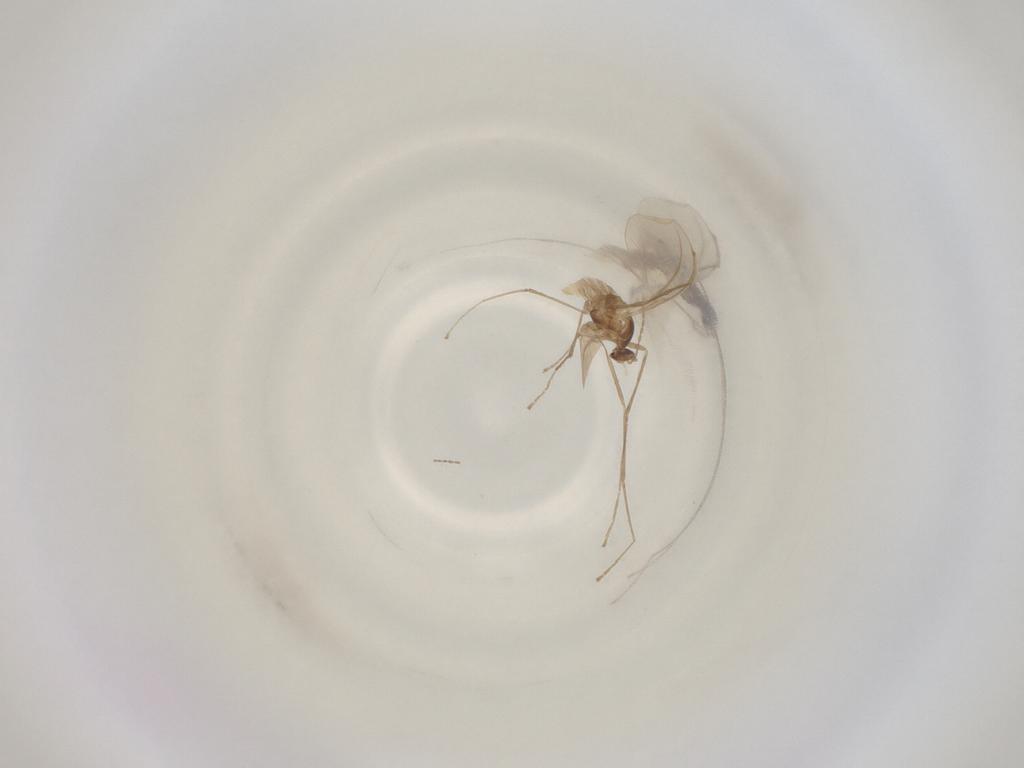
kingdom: Animalia
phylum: Arthropoda
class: Insecta
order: Diptera
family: Cecidomyiidae
